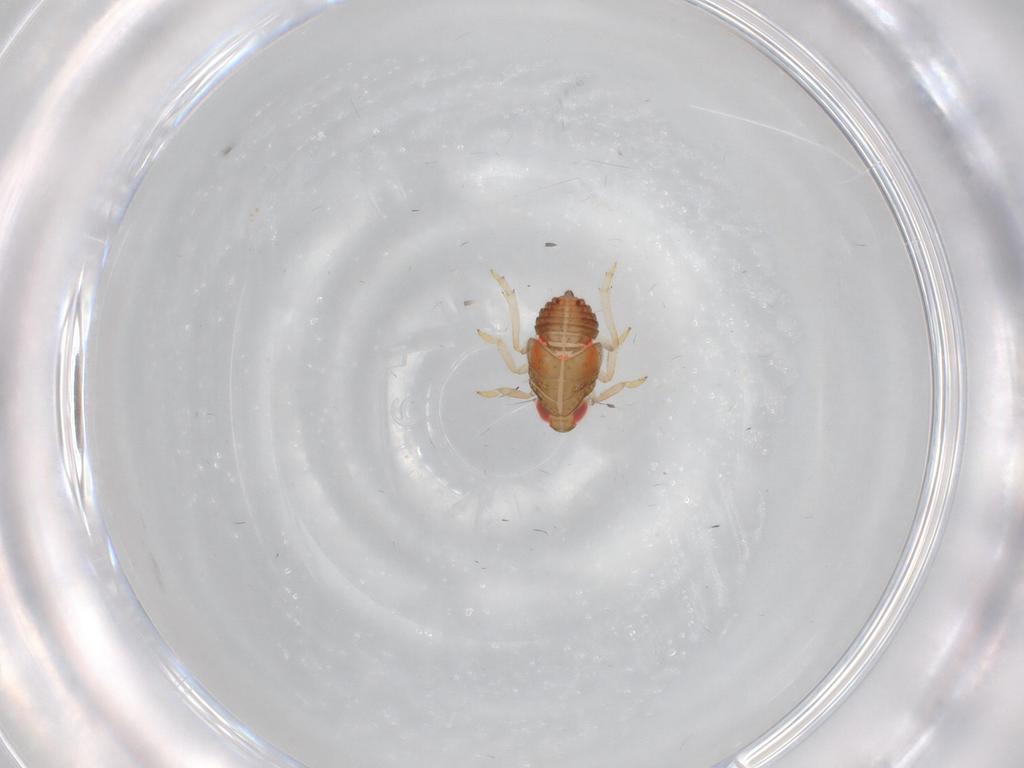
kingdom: Animalia
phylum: Arthropoda
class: Insecta
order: Hemiptera
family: Issidae
